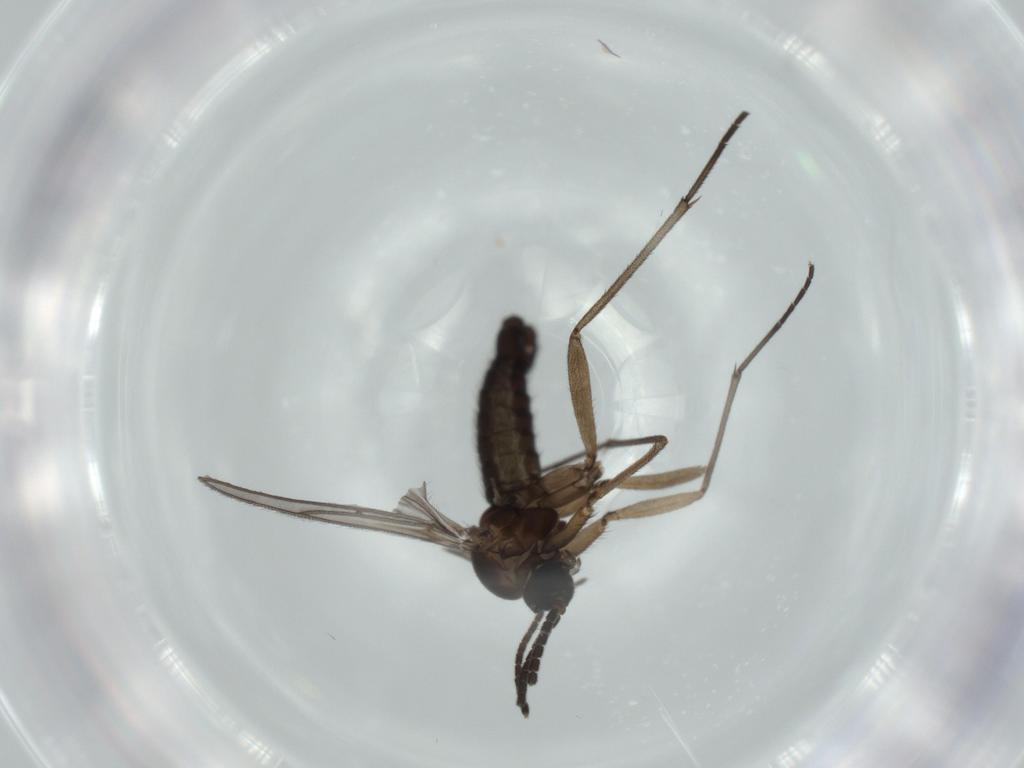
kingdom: Animalia
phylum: Arthropoda
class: Insecta
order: Diptera
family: Sciaridae
